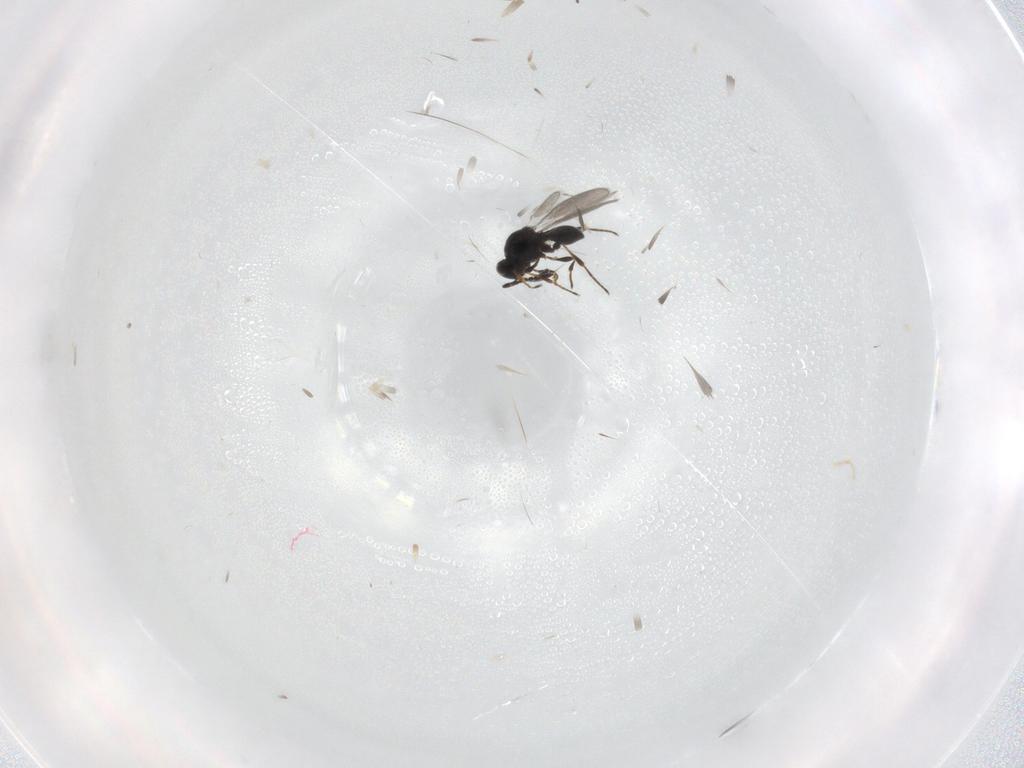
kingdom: Animalia
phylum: Arthropoda
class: Insecta
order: Hymenoptera
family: Platygastridae
